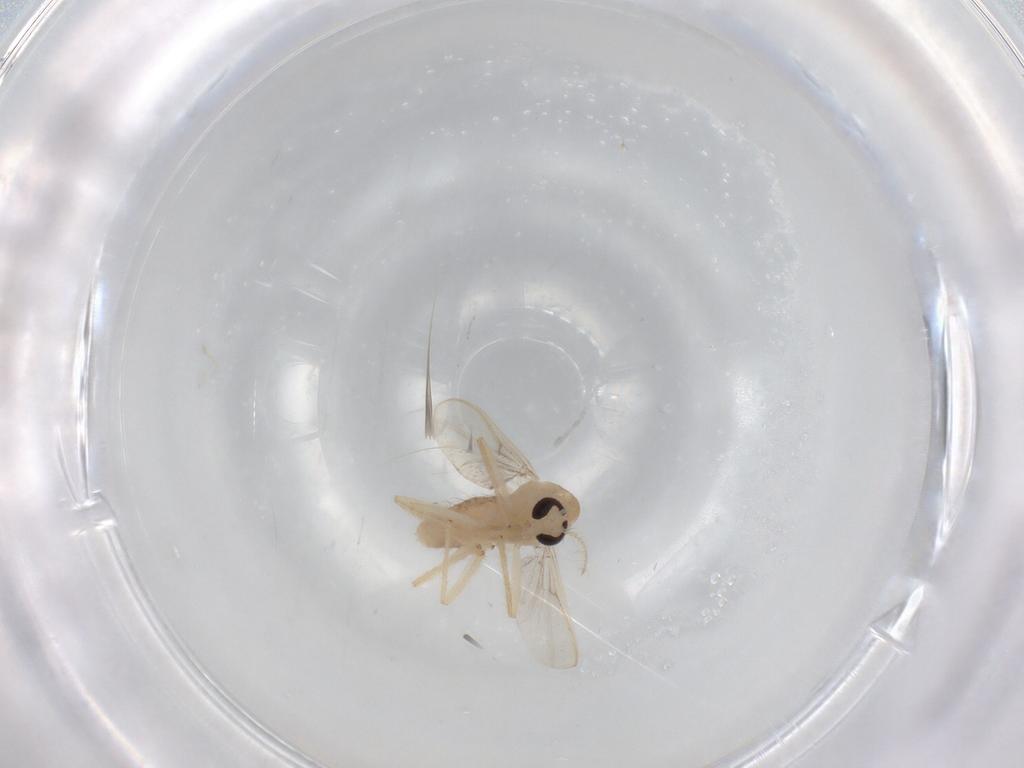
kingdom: Animalia
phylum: Arthropoda
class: Insecta
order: Diptera
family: Chironomidae
